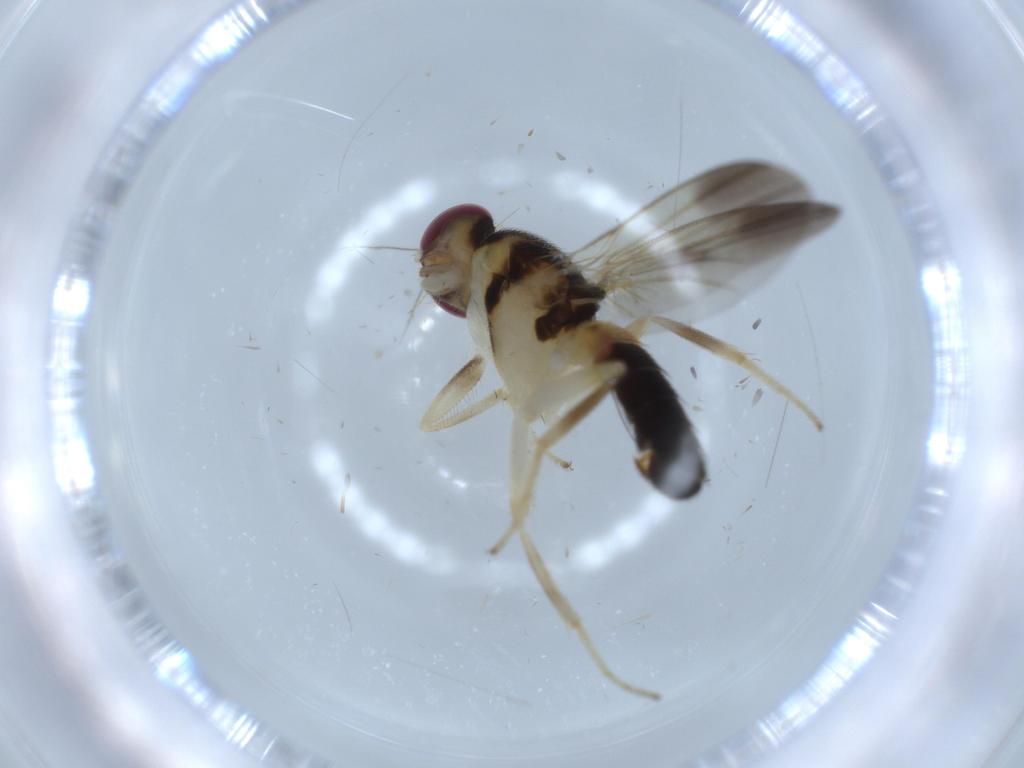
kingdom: Animalia
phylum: Arthropoda
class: Insecta
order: Diptera
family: Clusiidae
